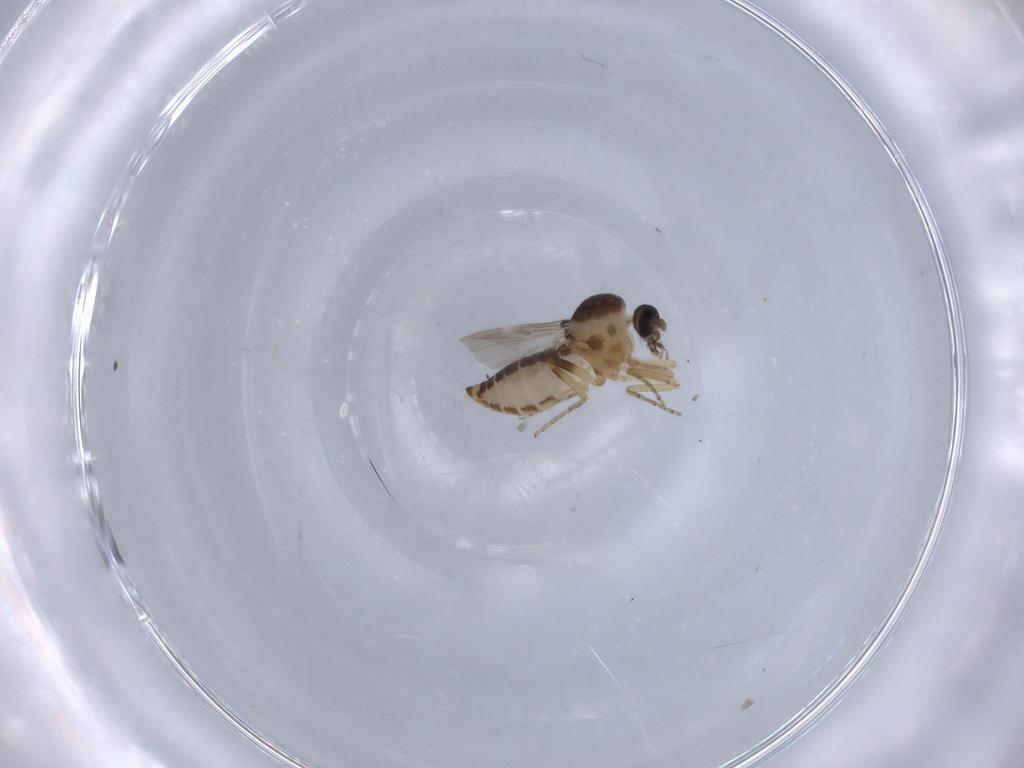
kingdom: Animalia
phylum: Arthropoda
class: Insecta
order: Diptera
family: Ceratopogonidae
